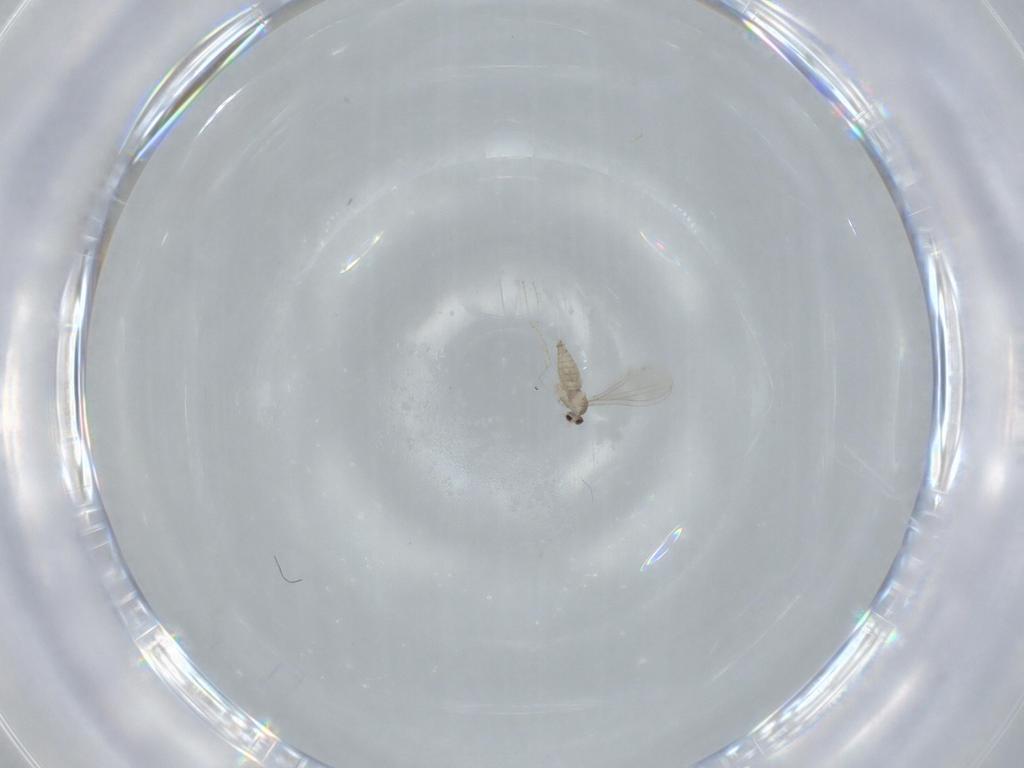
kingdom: Animalia
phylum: Arthropoda
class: Insecta
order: Diptera
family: Cecidomyiidae
